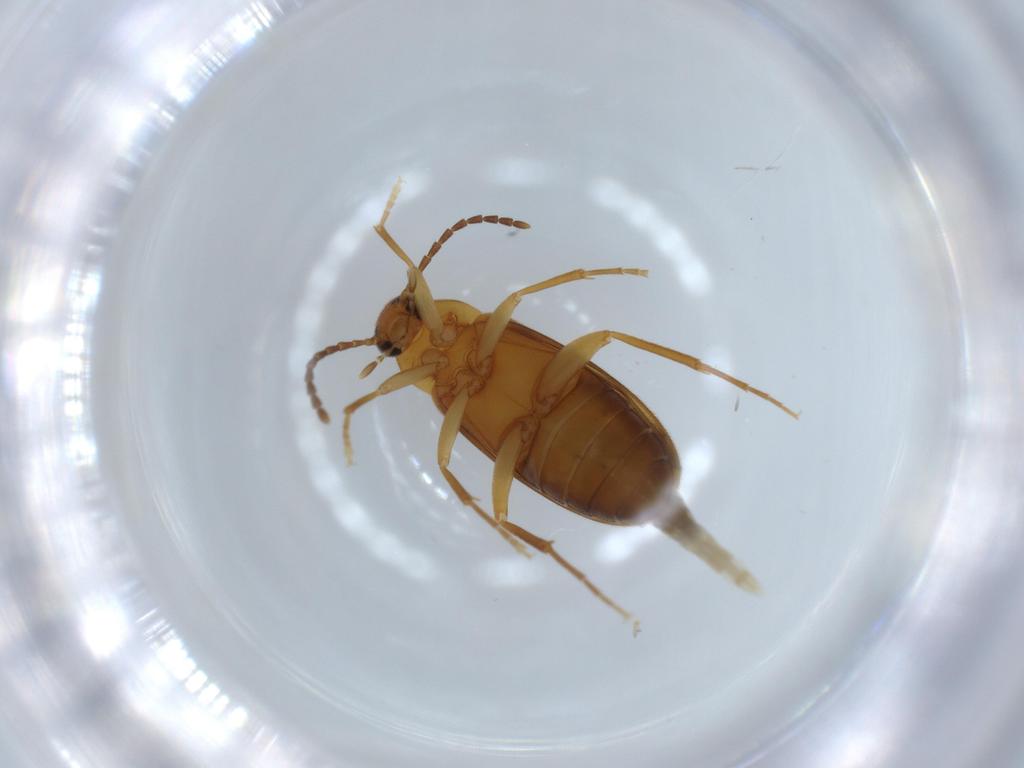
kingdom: Animalia
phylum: Arthropoda
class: Insecta
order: Coleoptera
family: Scraptiidae
